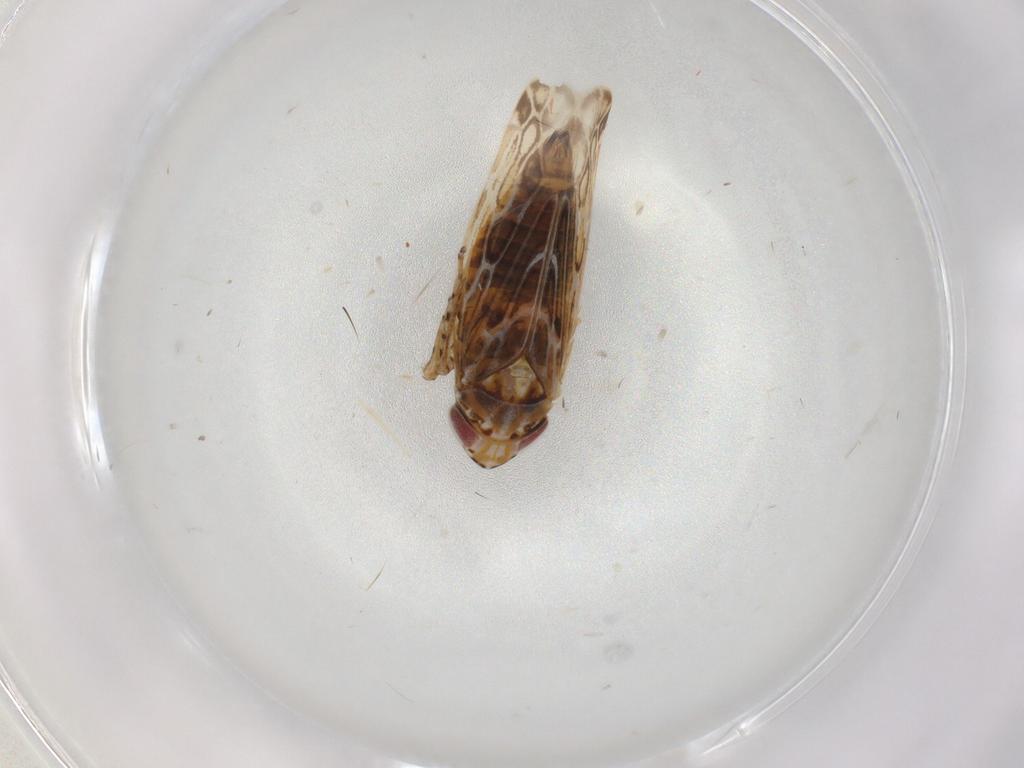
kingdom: Animalia
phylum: Arthropoda
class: Insecta
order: Hemiptera
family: Cicadellidae
